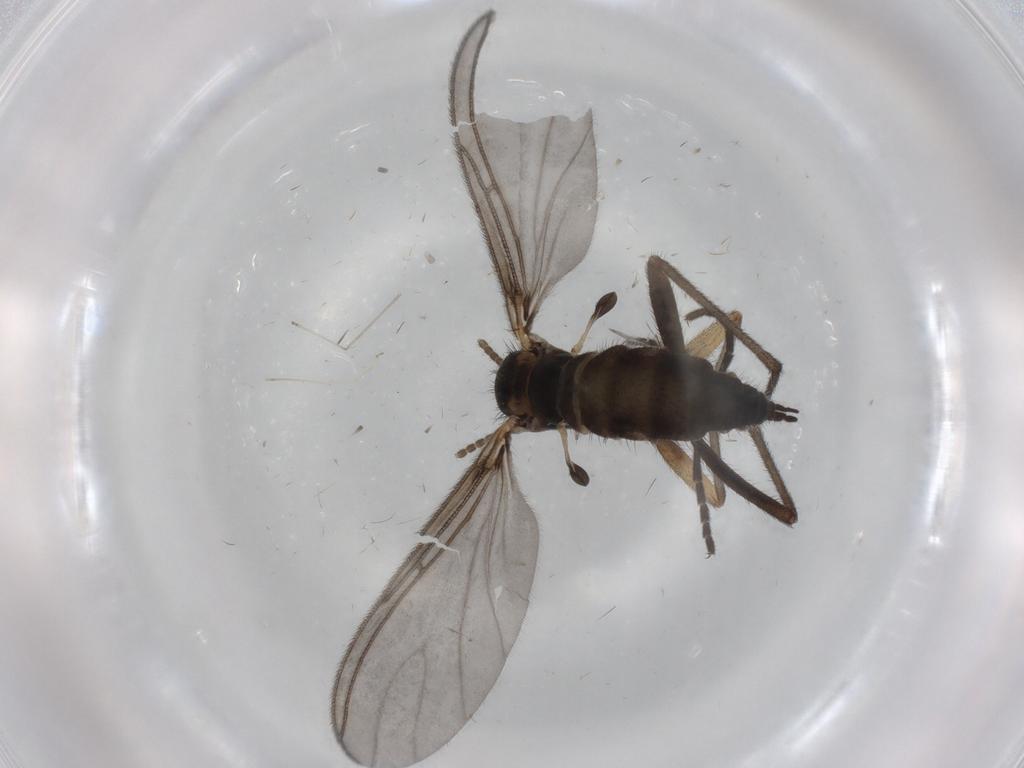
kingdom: Animalia
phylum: Arthropoda
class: Insecta
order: Diptera
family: Sciaridae
